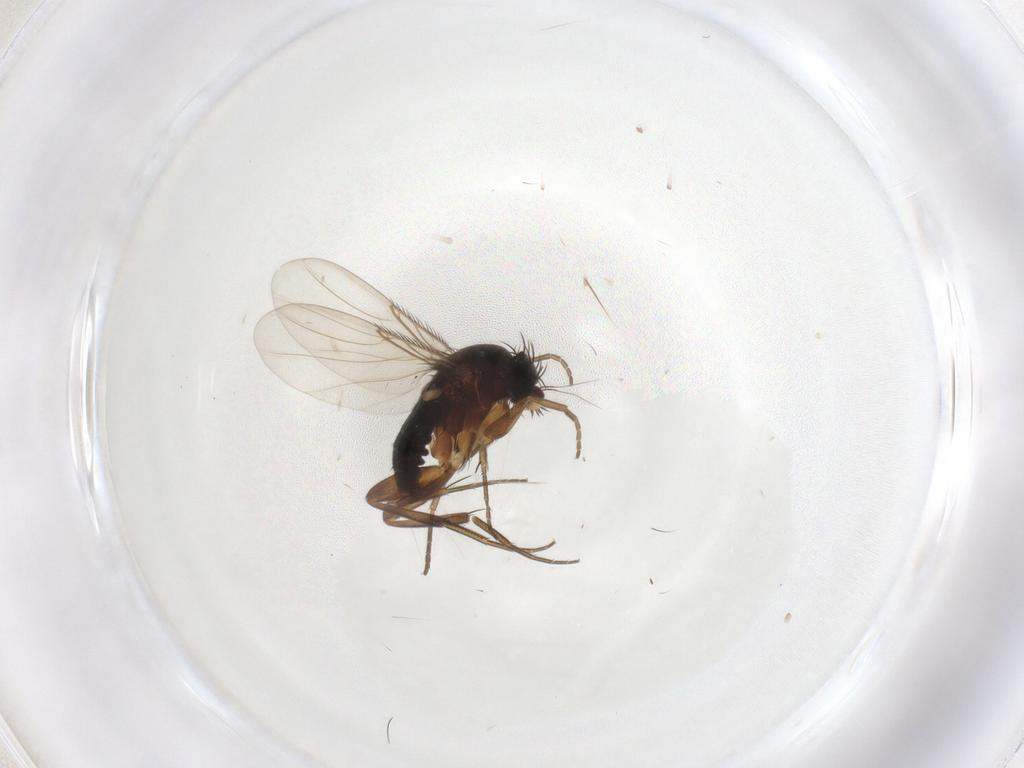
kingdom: Animalia
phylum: Arthropoda
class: Insecta
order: Diptera
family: Phoridae
